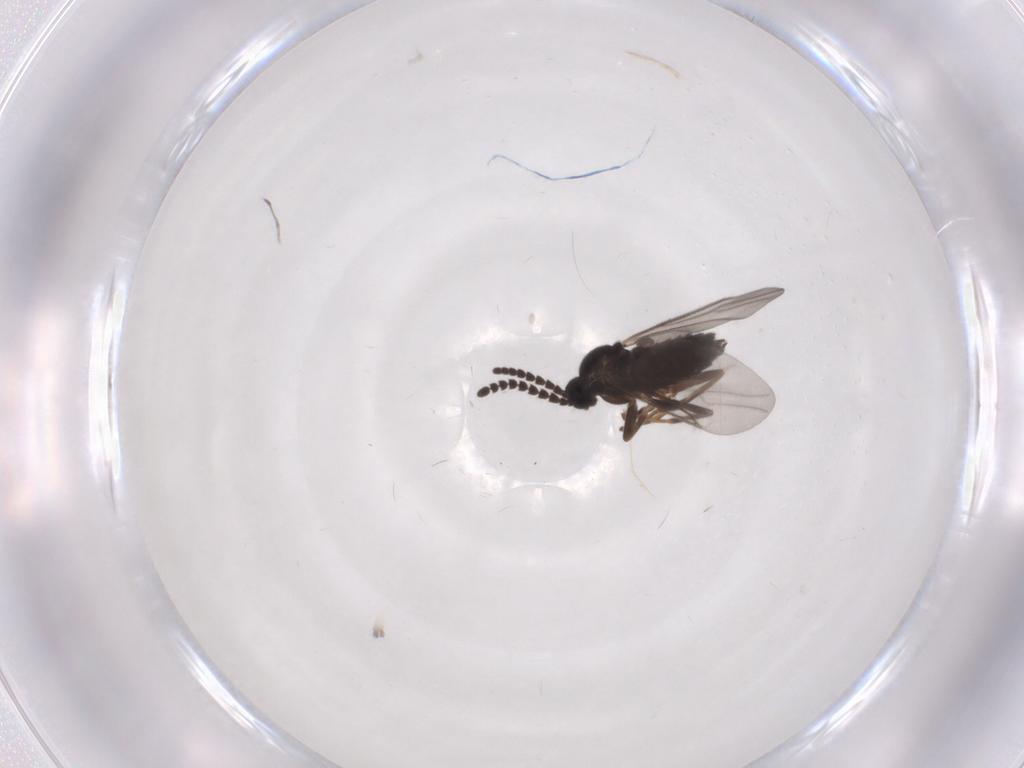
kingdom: Animalia
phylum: Arthropoda
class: Insecta
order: Diptera
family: Scatopsidae
